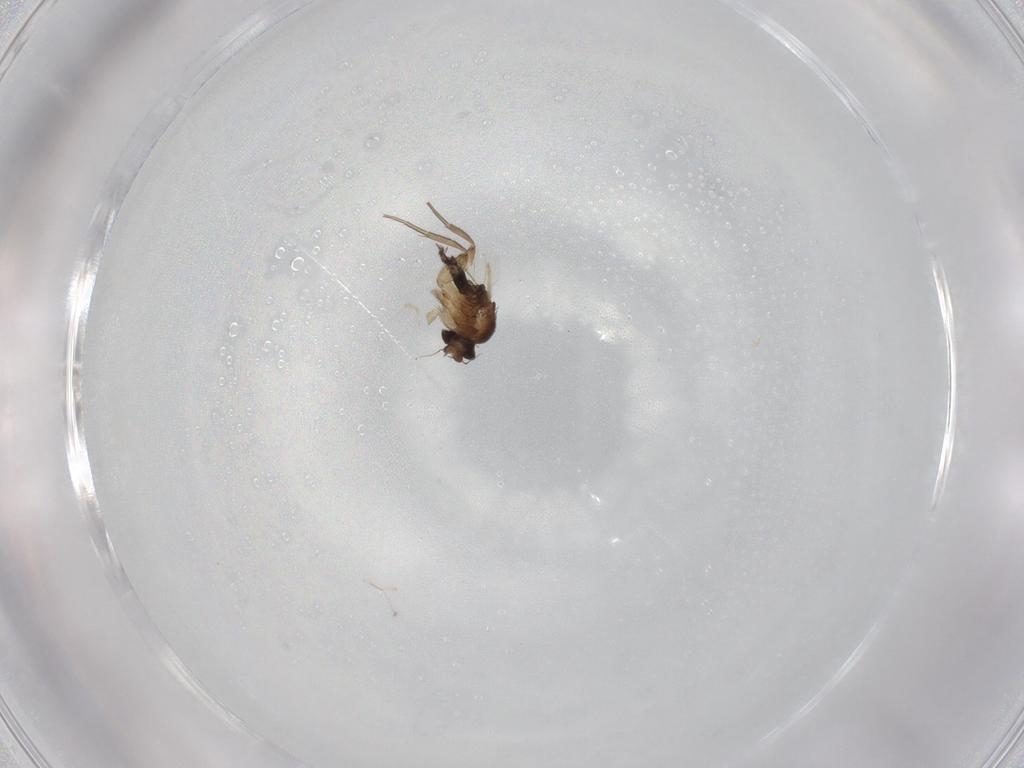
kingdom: Animalia
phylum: Arthropoda
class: Insecta
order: Diptera
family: Phoridae
